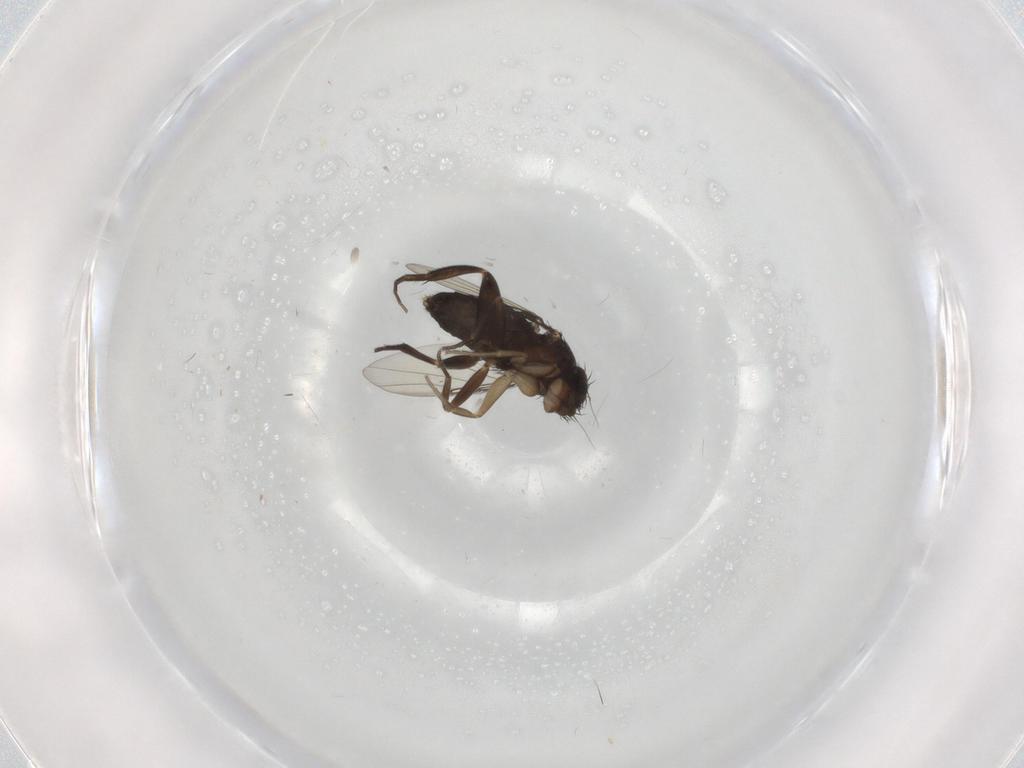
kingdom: Animalia
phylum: Arthropoda
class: Insecta
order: Diptera
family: Phoridae
